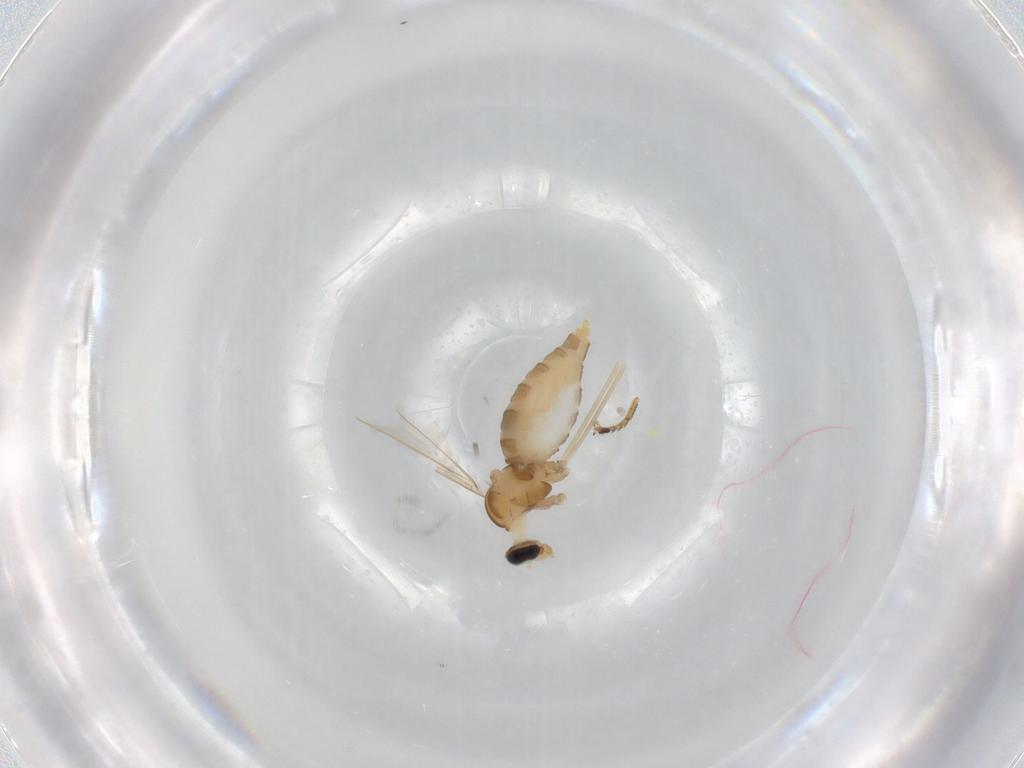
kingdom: Animalia
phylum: Arthropoda
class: Insecta
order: Diptera
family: Cecidomyiidae
